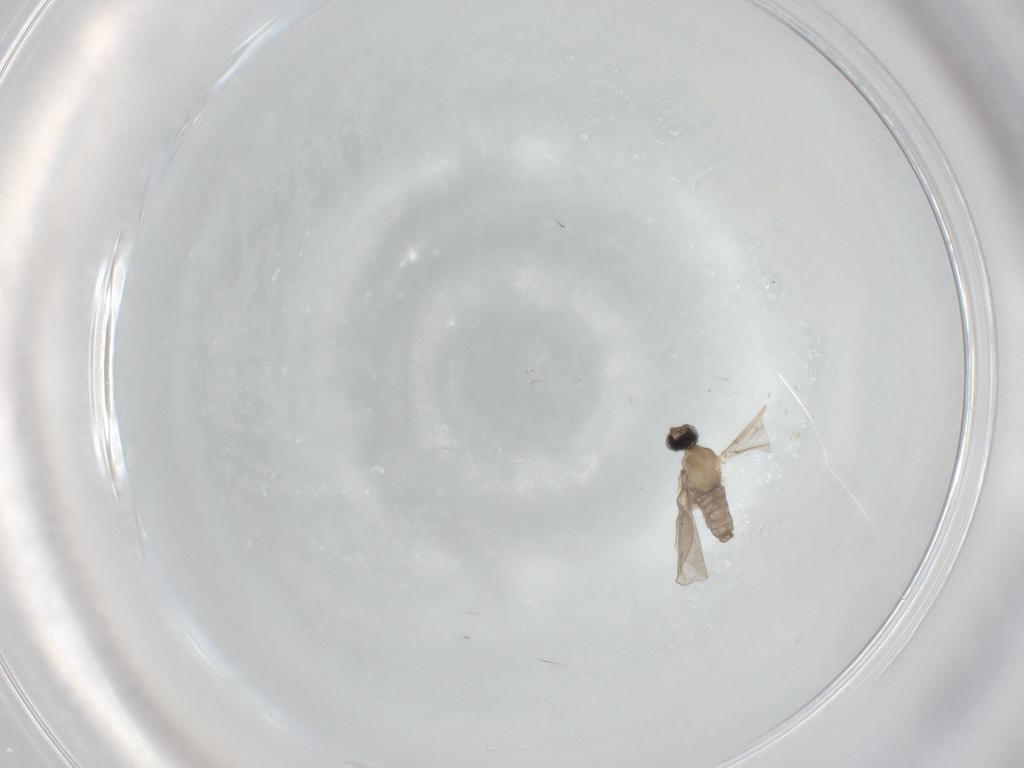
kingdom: Animalia
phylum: Arthropoda
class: Insecta
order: Diptera
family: Cecidomyiidae
